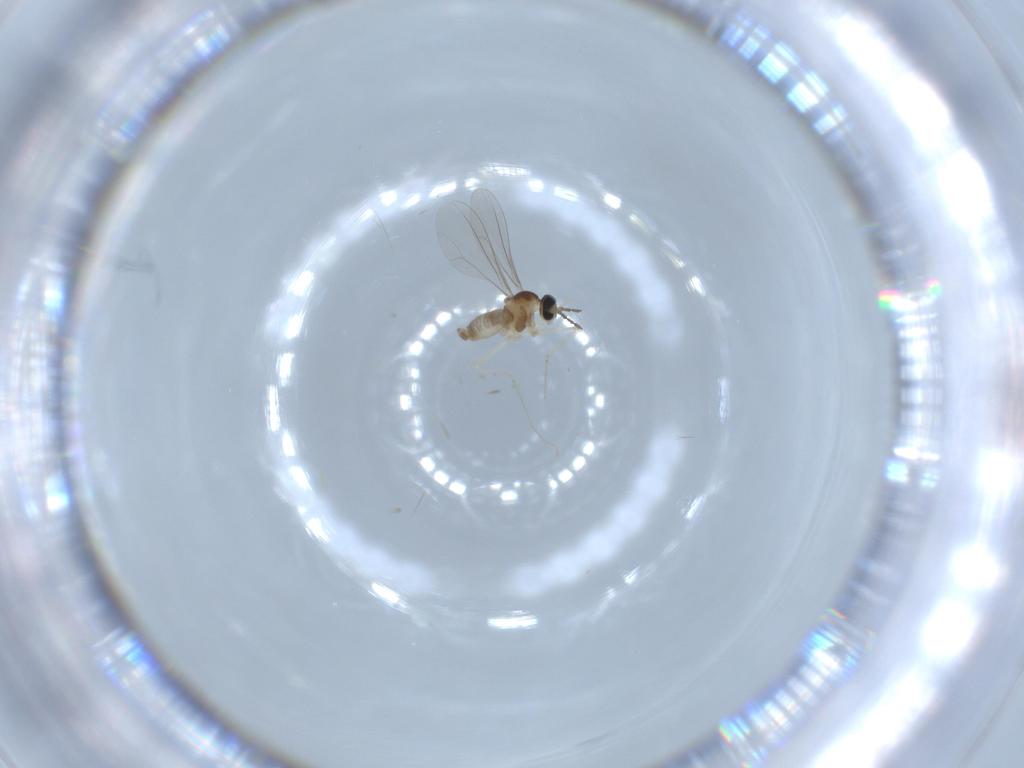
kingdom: Animalia
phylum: Arthropoda
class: Insecta
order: Diptera
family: Cecidomyiidae
